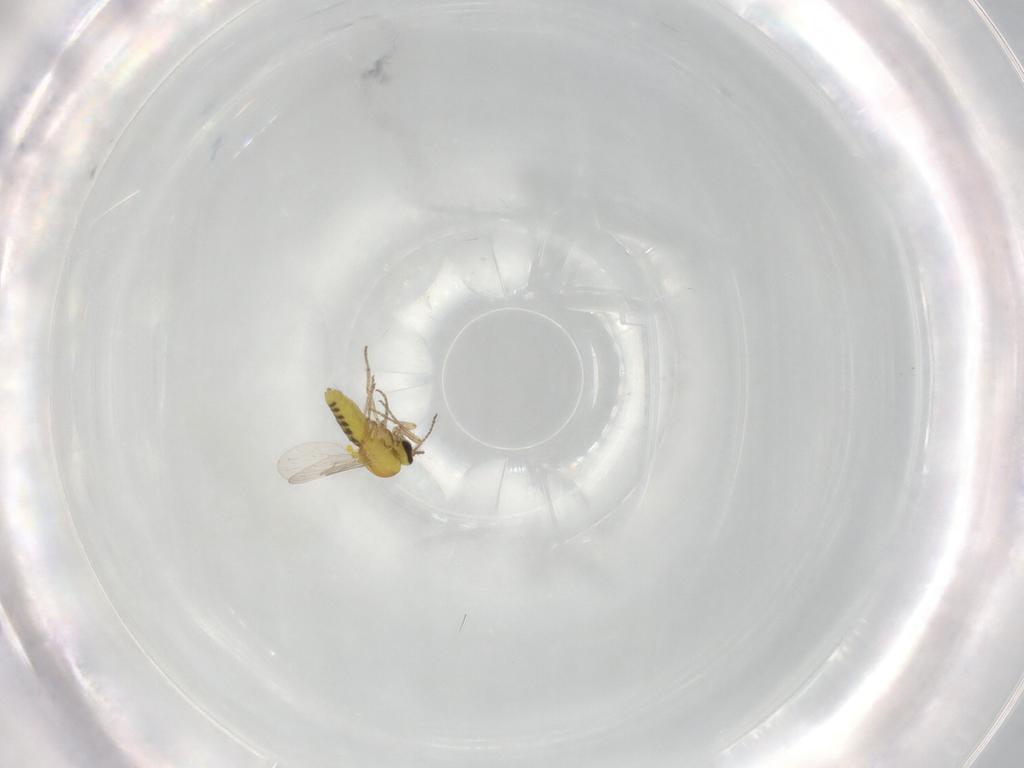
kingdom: Animalia
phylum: Arthropoda
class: Insecta
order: Diptera
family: Ceratopogonidae
